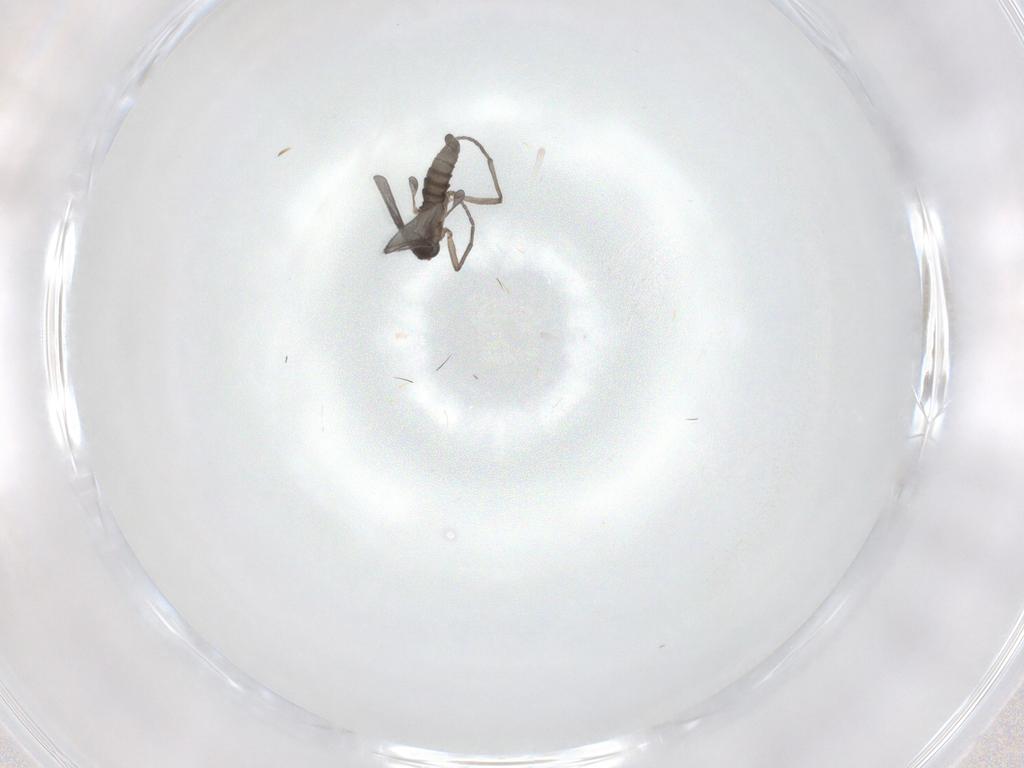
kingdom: Animalia
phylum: Arthropoda
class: Insecta
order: Diptera
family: Sciaridae
